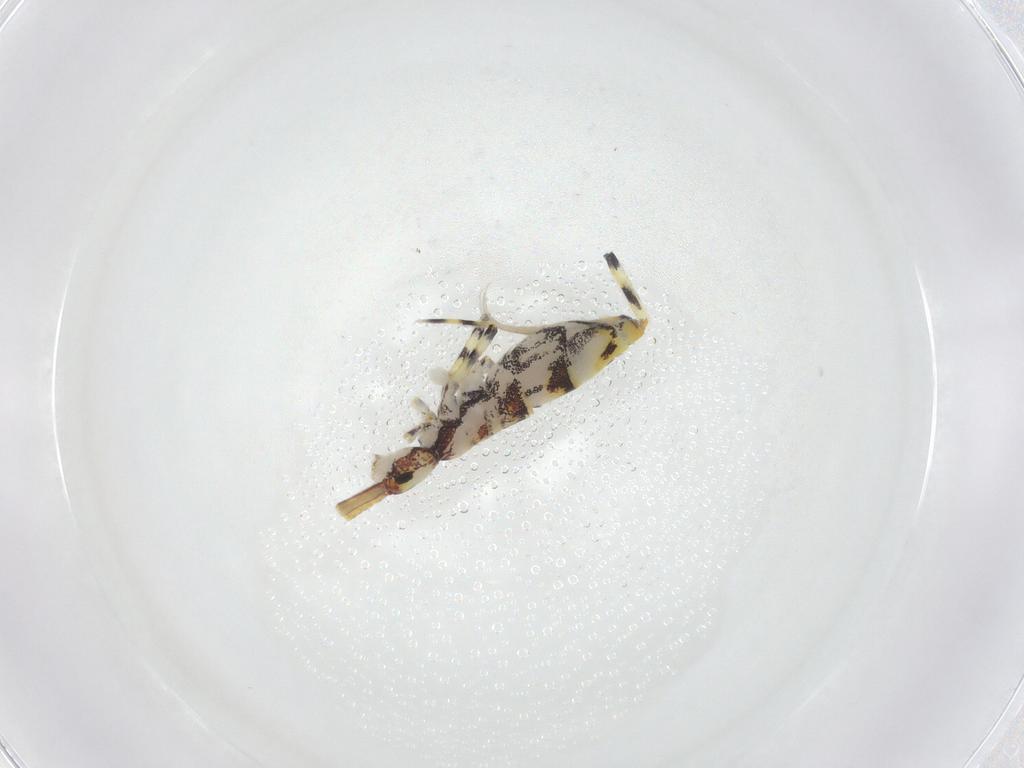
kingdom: Animalia
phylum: Arthropoda
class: Collembola
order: Entomobryomorpha
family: Entomobryidae
